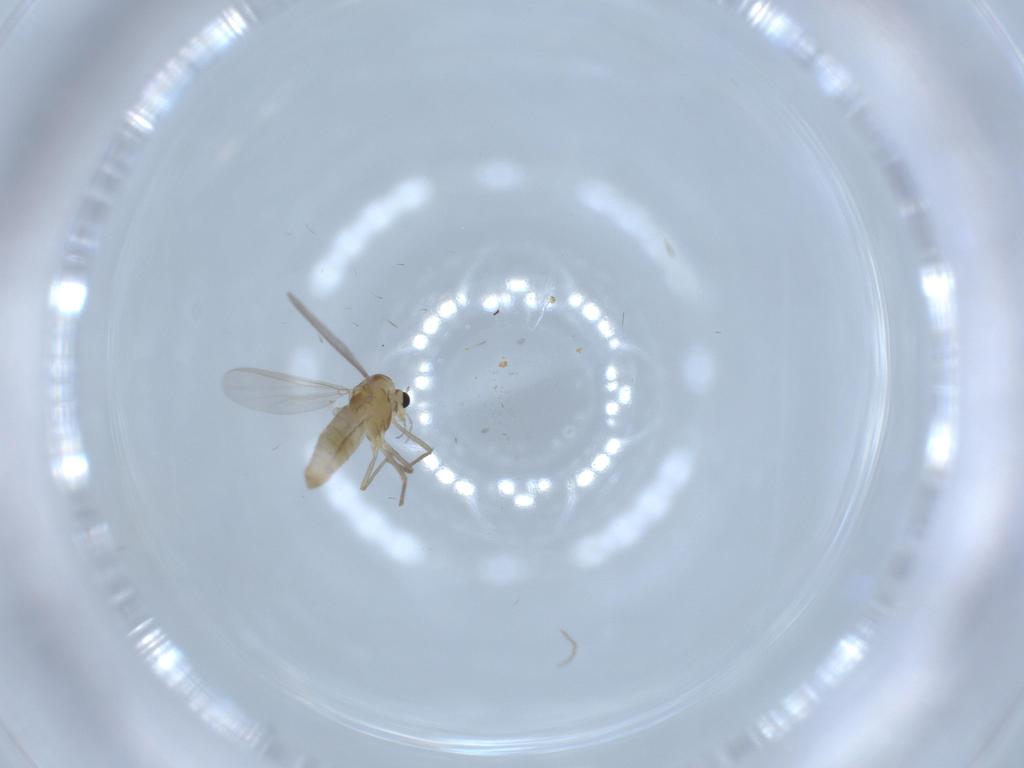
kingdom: Animalia
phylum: Arthropoda
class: Insecta
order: Diptera
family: Chironomidae
